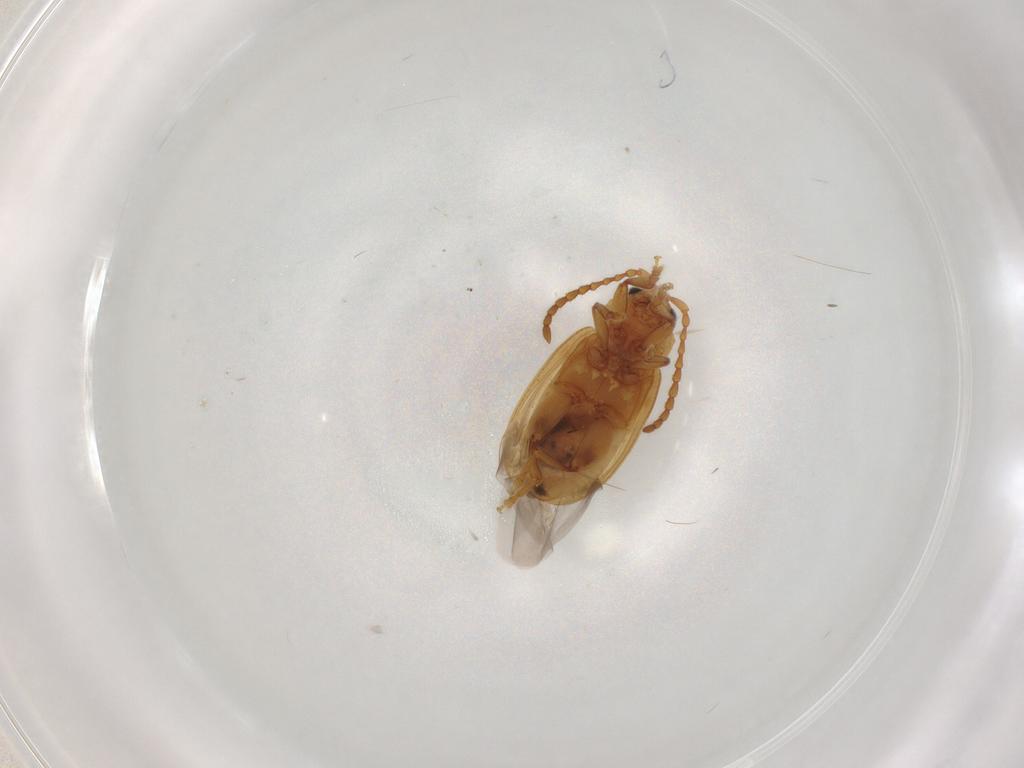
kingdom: Animalia
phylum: Arthropoda
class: Insecta
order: Coleoptera
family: Chrysomelidae
